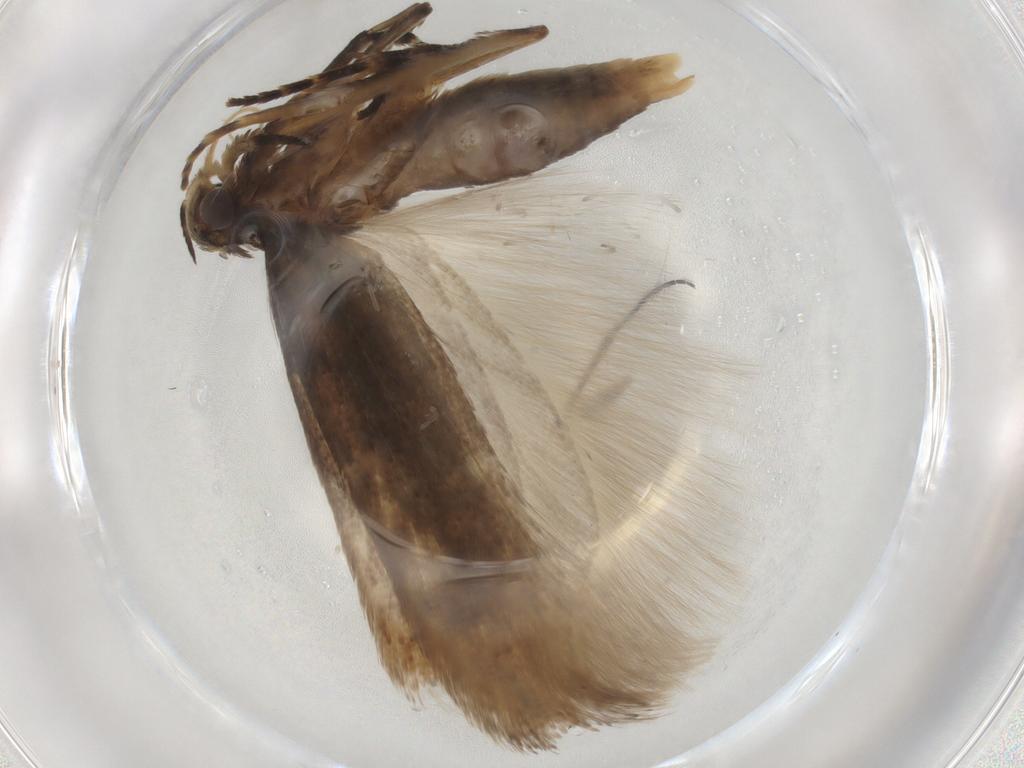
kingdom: Animalia
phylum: Arthropoda
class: Insecta
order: Lepidoptera
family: Gelechiidae
